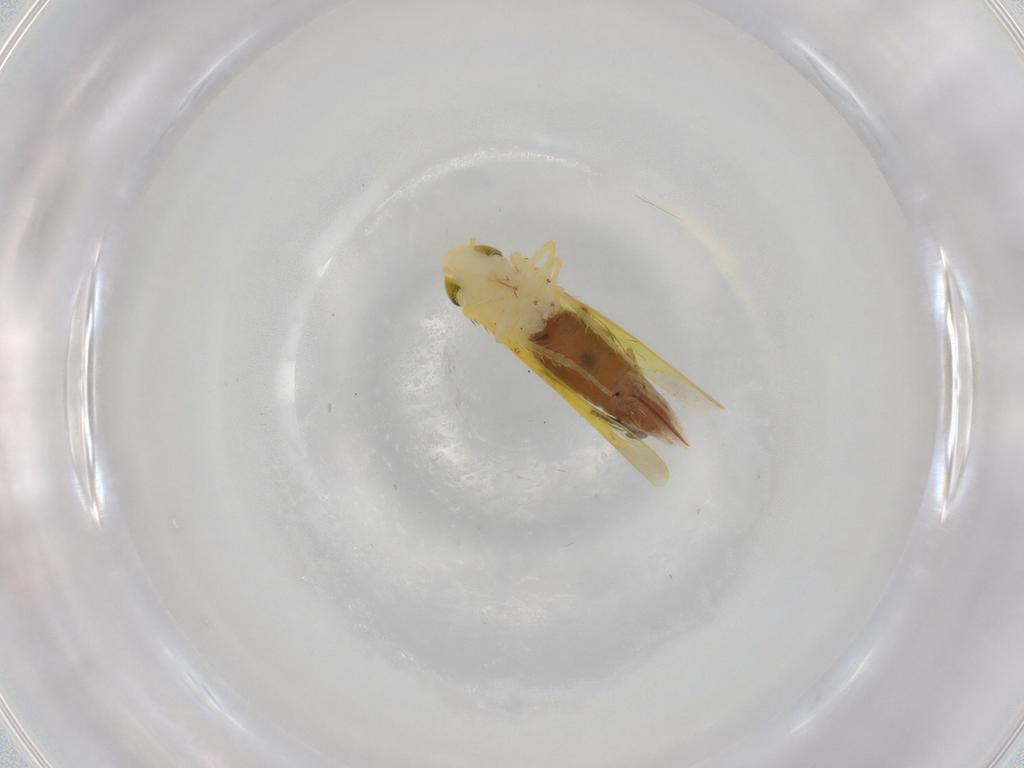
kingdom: Animalia
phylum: Arthropoda
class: Insecta
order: Hemiptera
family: Cicadellidae
